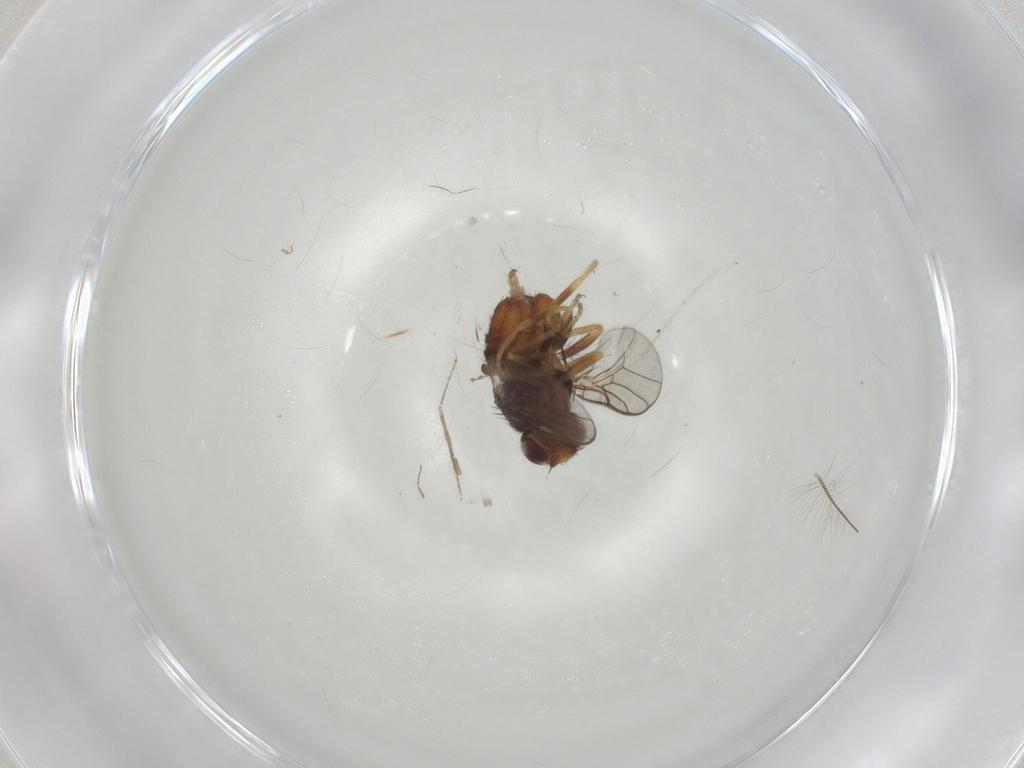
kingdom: Animalia
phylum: Arthropoda
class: Insecta
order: Diptera
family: Chloropidae
